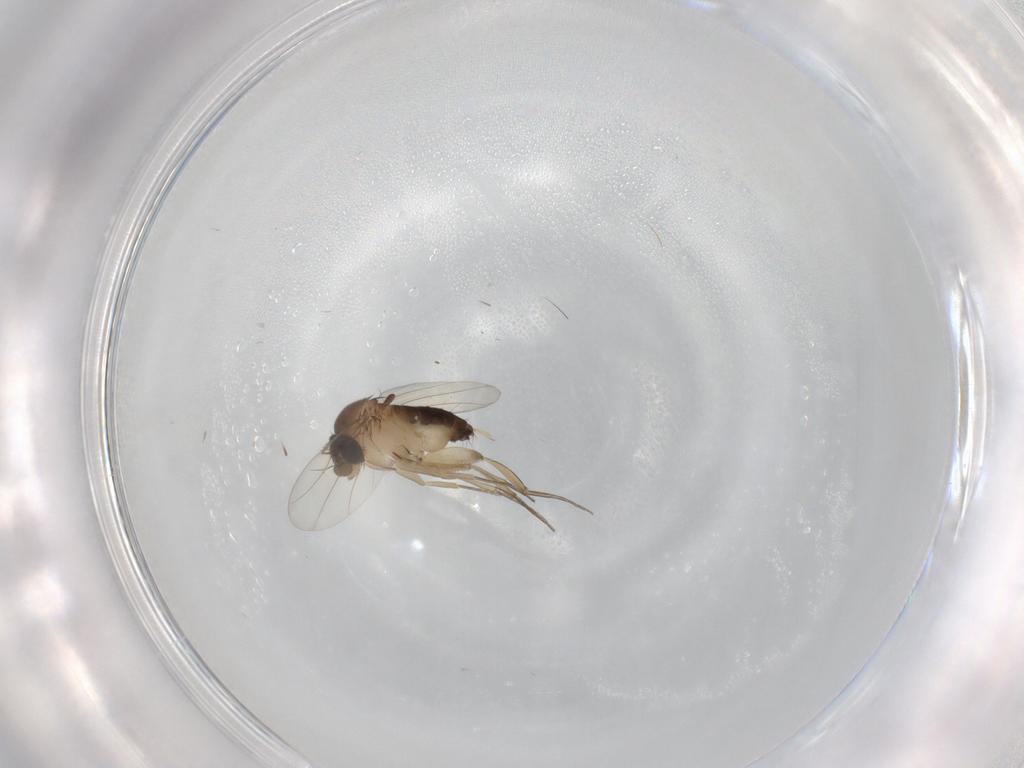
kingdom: Animalia
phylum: Arthropoda
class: Insecta
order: Diptera
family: Phoridae
